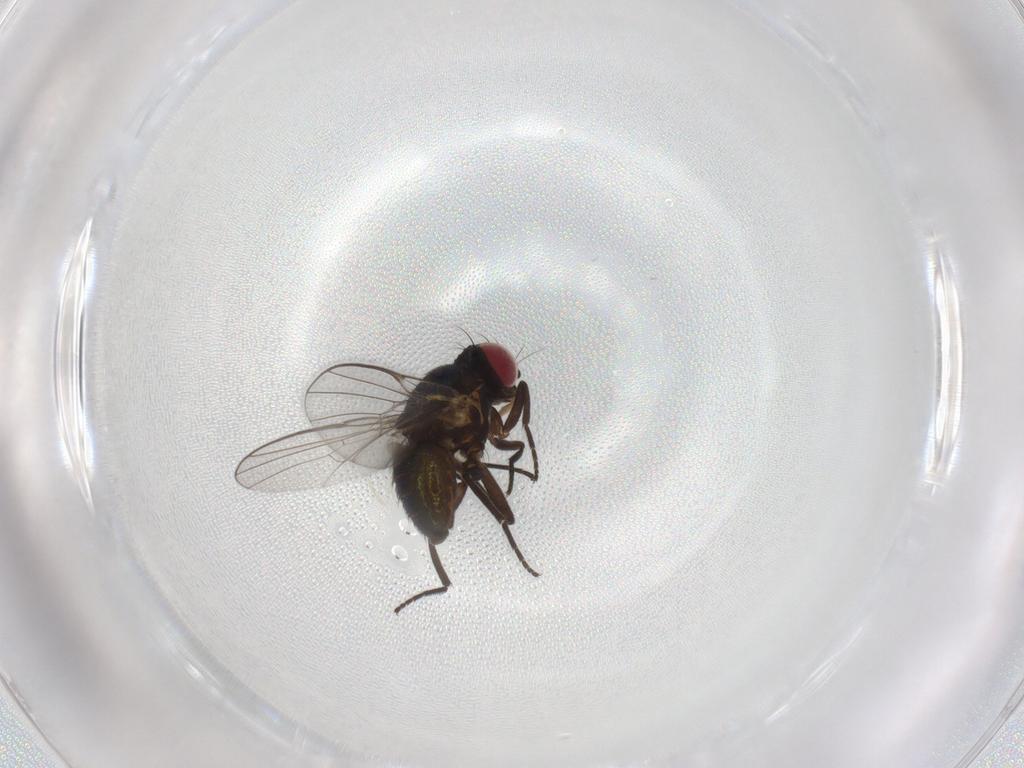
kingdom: Animalia
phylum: Arthropoda
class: Insecta
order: Diptera
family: Agromyzidae
